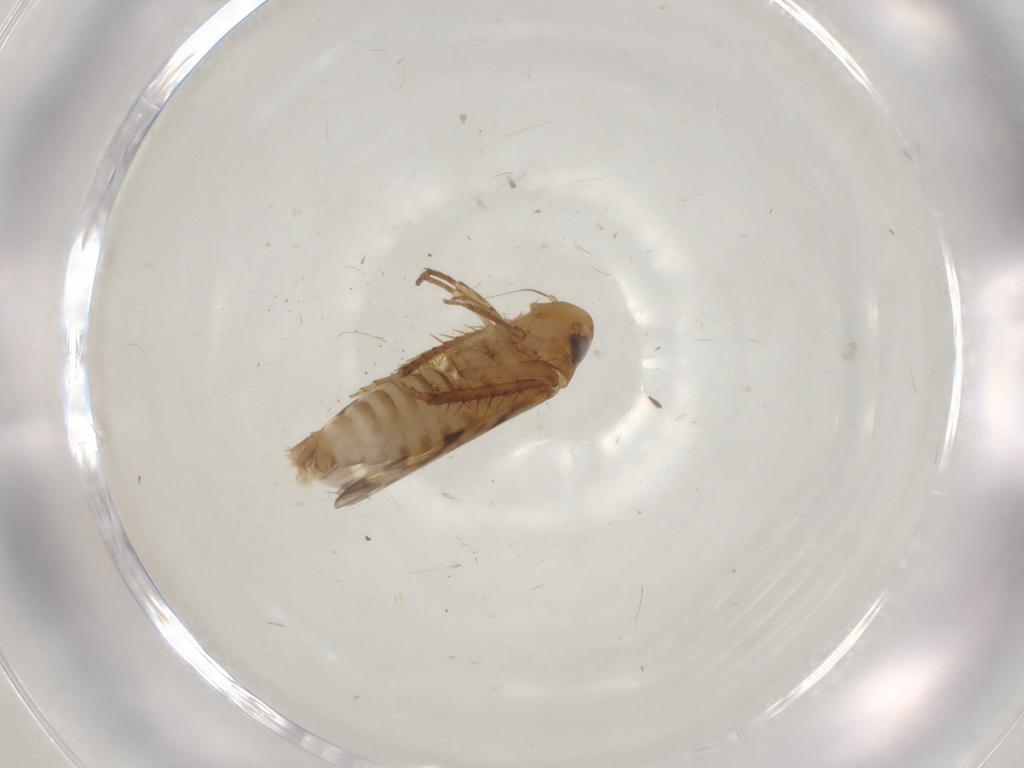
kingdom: Animalia
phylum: Arthropoda
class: Insecta
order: Hemiptera
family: Cicadellidae
